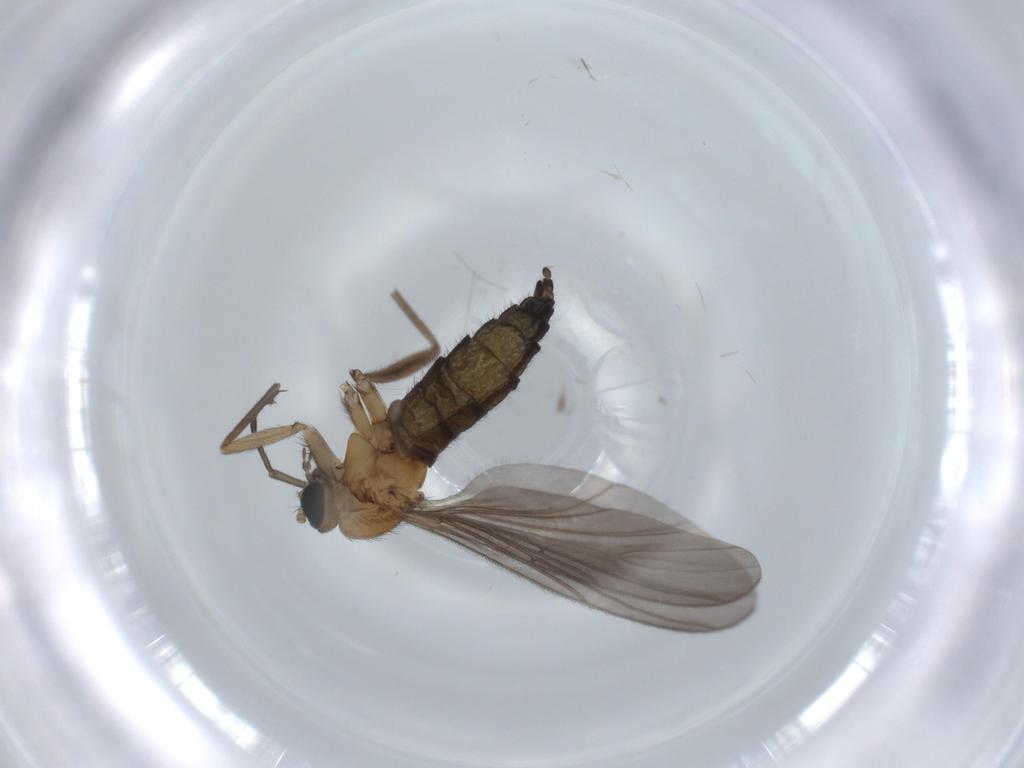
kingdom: Animalia
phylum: Arthropoda
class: Insecta
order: Diptera
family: Sciaridae
